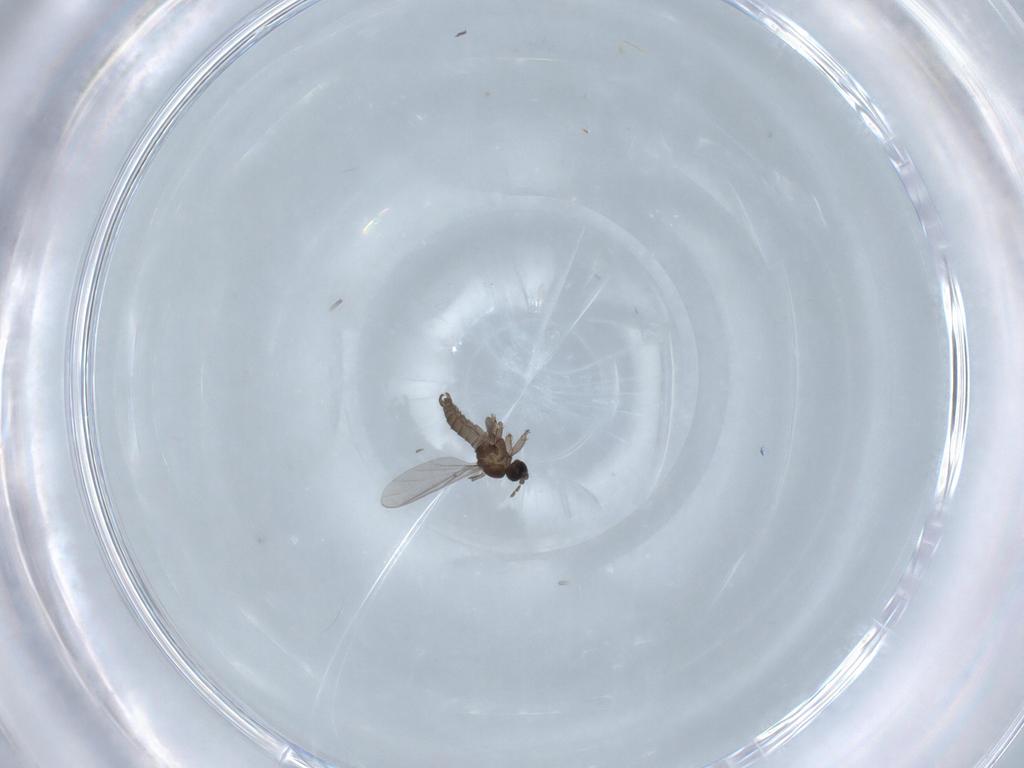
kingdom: Animalia
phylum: Arthropoda
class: Insecta
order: Diptera
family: Sciaridae
